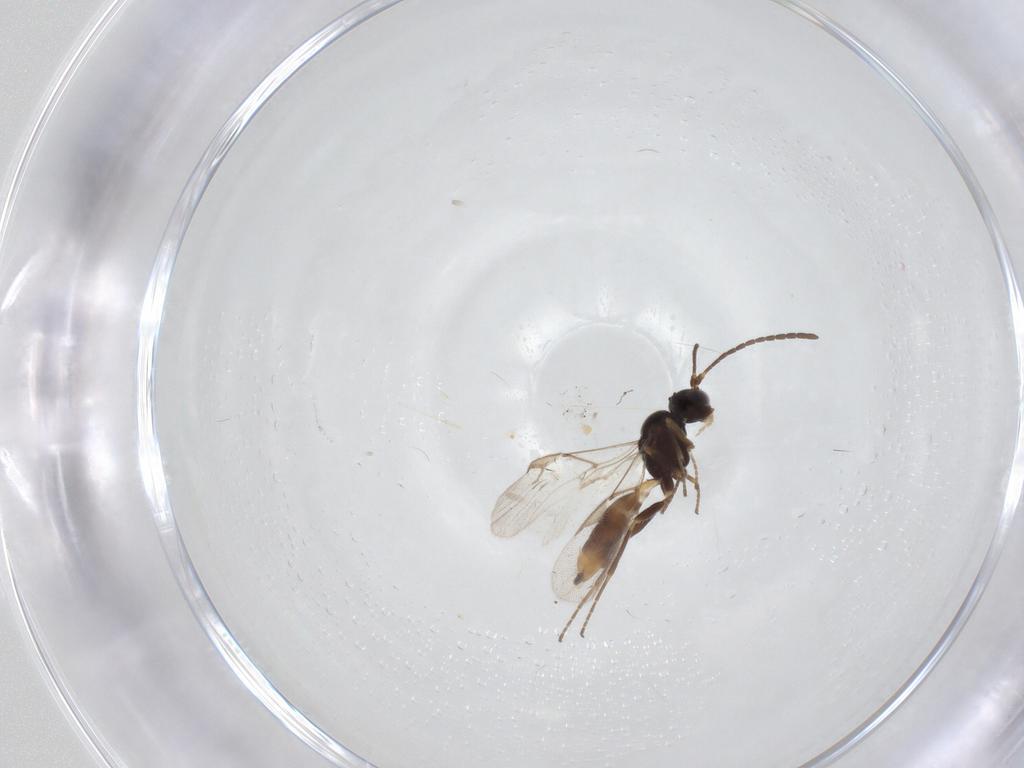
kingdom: Animalia
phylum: Arthropoda
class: Insecta
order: Hymenoptera
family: Braconidae
